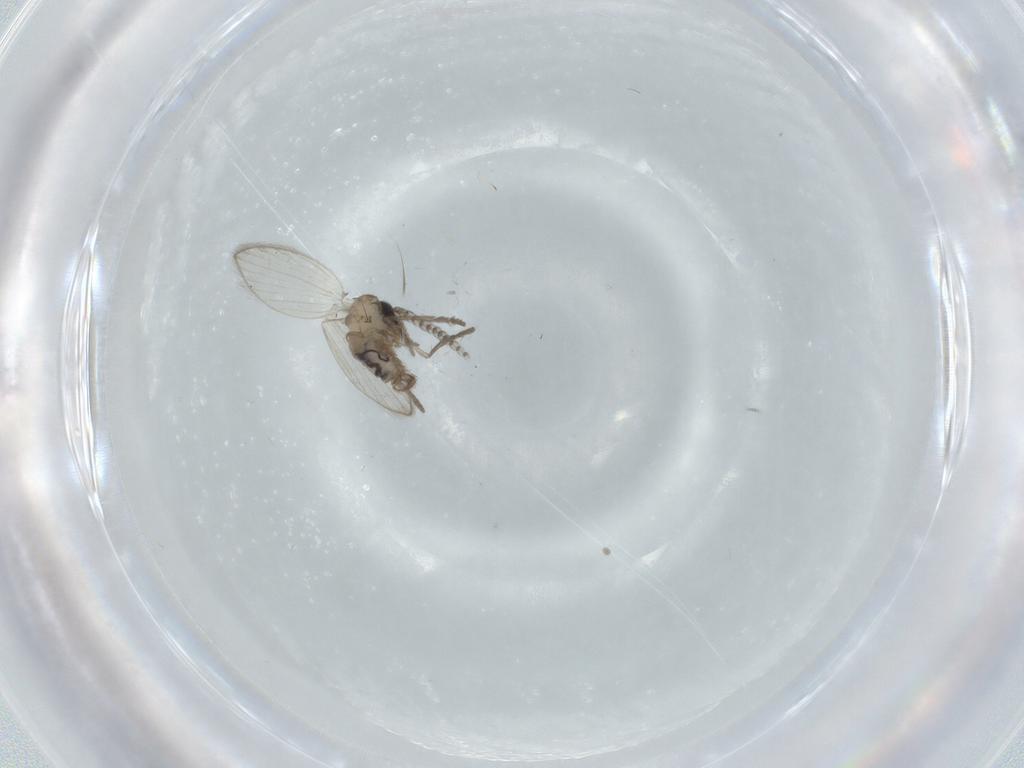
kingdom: Animalia
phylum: Arthropoda
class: Insecta
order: Diptera
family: Psychodidae
